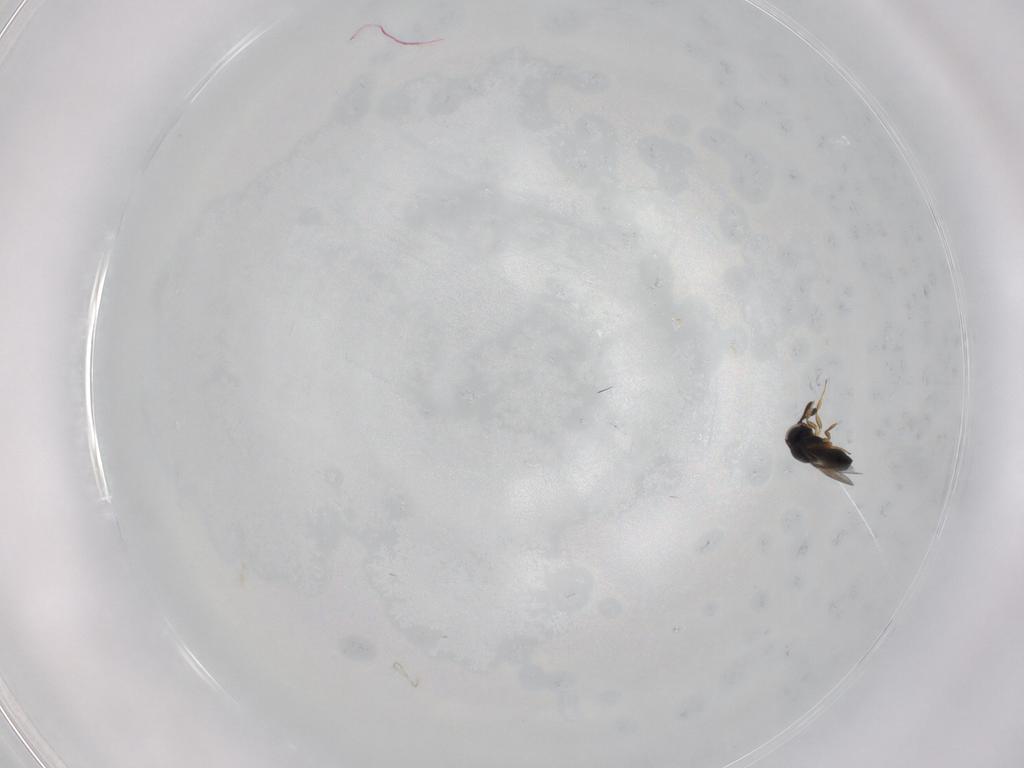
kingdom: Animalia
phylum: Arthropoda
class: Insecta
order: Hymenoptera
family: Scelionidae
